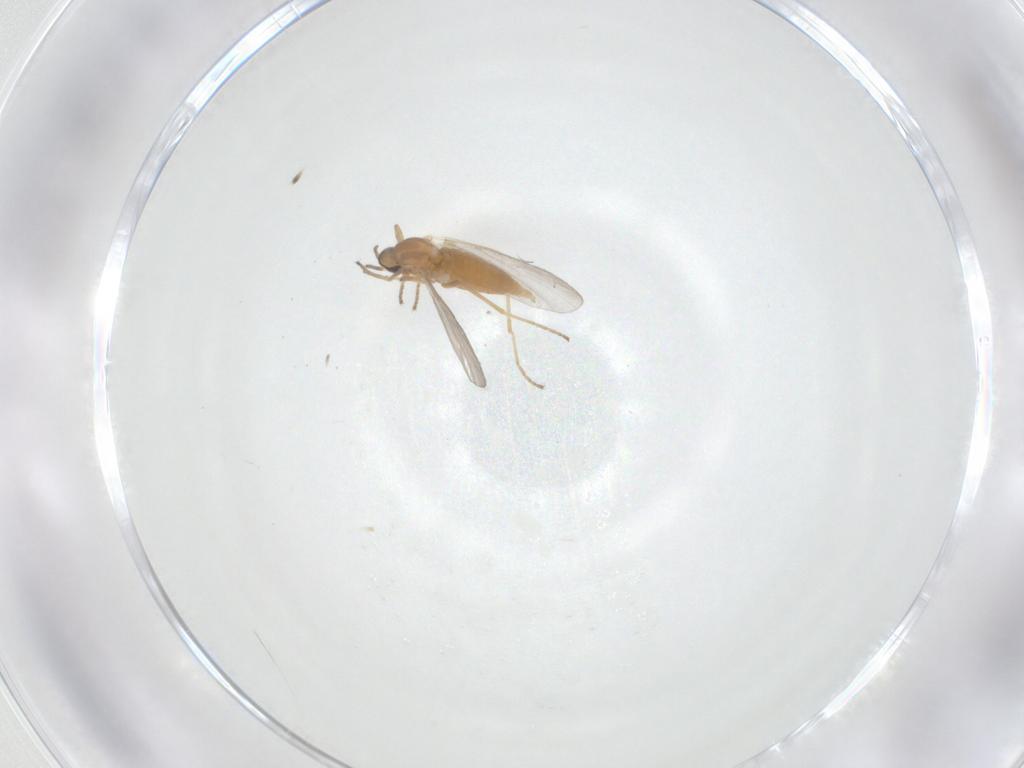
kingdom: Animalia
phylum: Arthropoda
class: Insecta
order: Diptera
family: Cecidomyiidae
